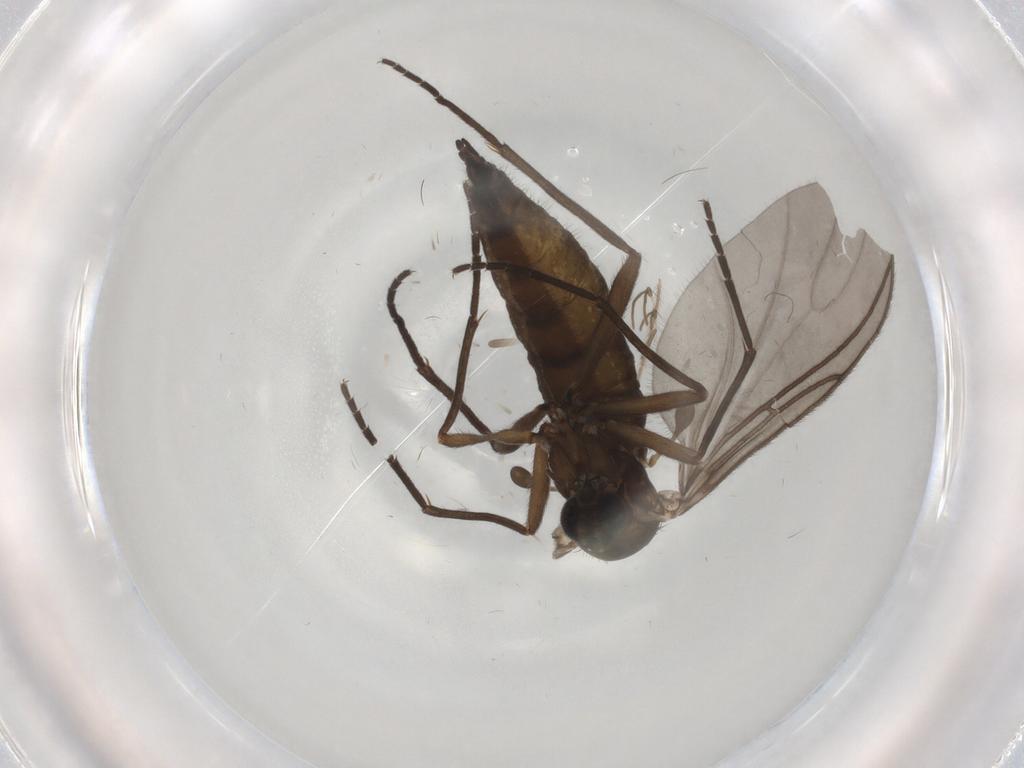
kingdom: Animalia
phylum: Arthropoda
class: Insecta
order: Diptera
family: Sciaridae
